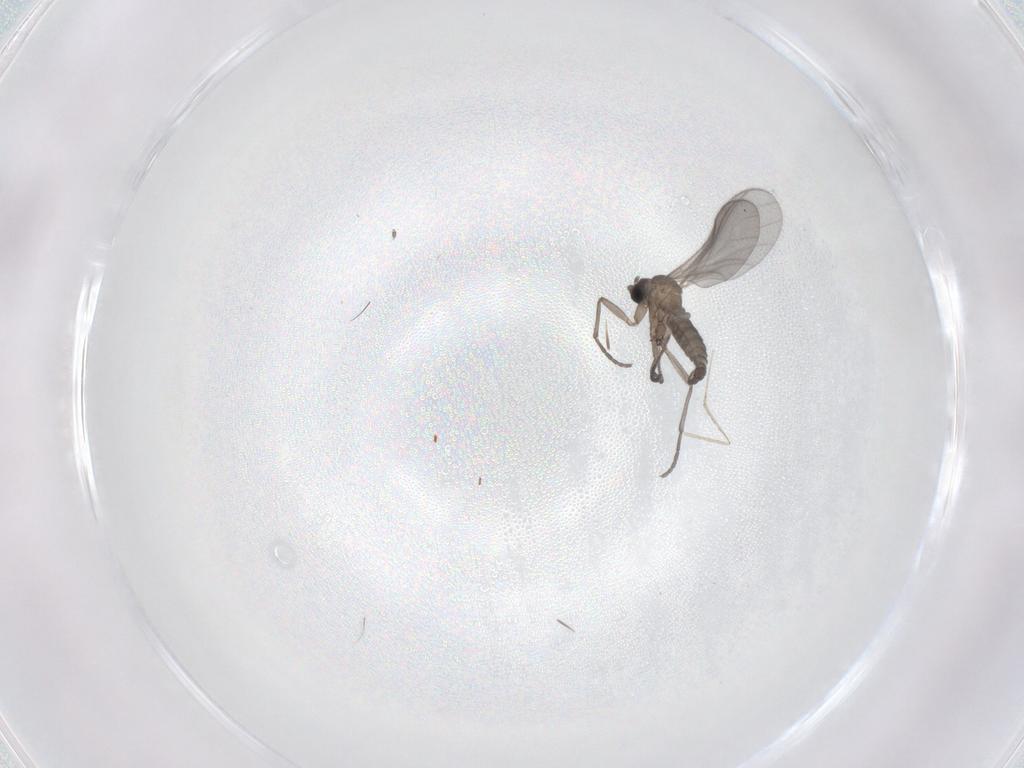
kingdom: Animalia
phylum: Arthropoda
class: Insecta
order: Diptera
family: Sciaridae
